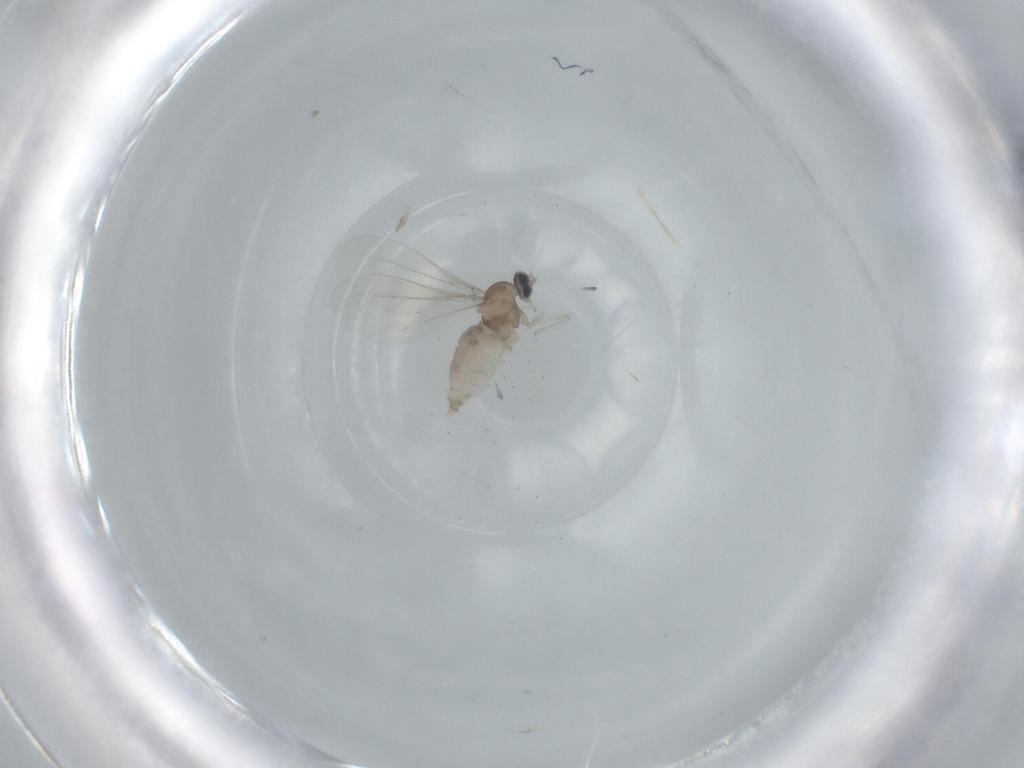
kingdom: Animalia
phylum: Arthropoda
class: Insecta
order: Diptera
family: Cecidomyiidae
